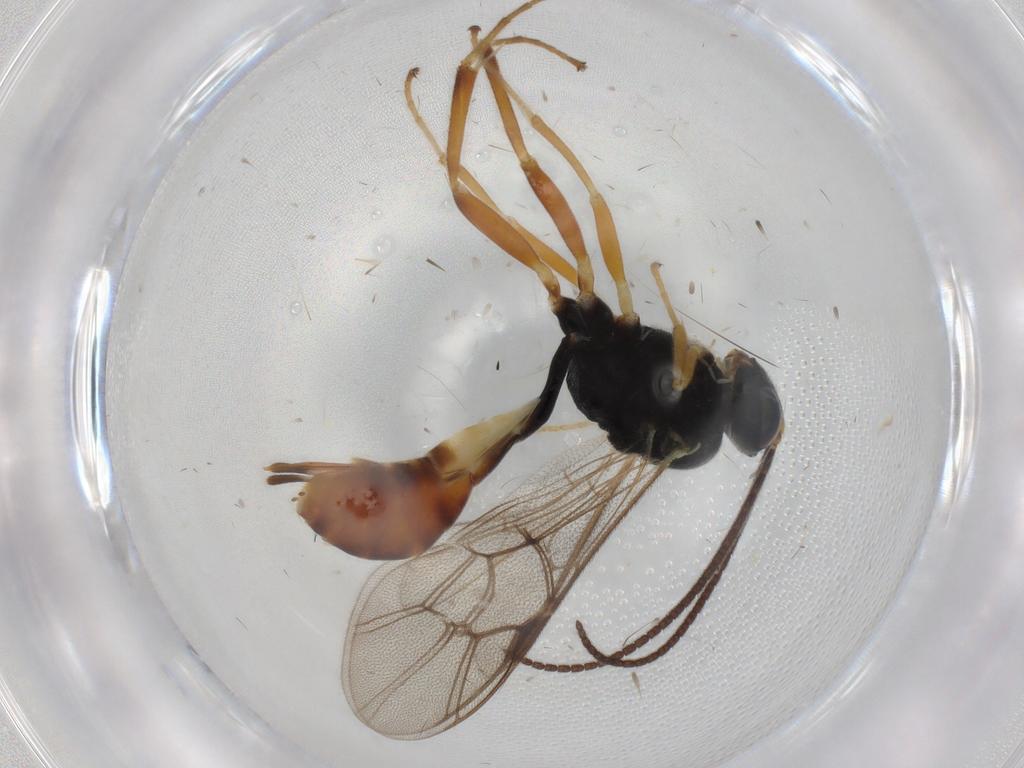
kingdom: Animalia
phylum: Arthropoda
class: Insecta
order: Hymenoptera
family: Ichneumonidae
